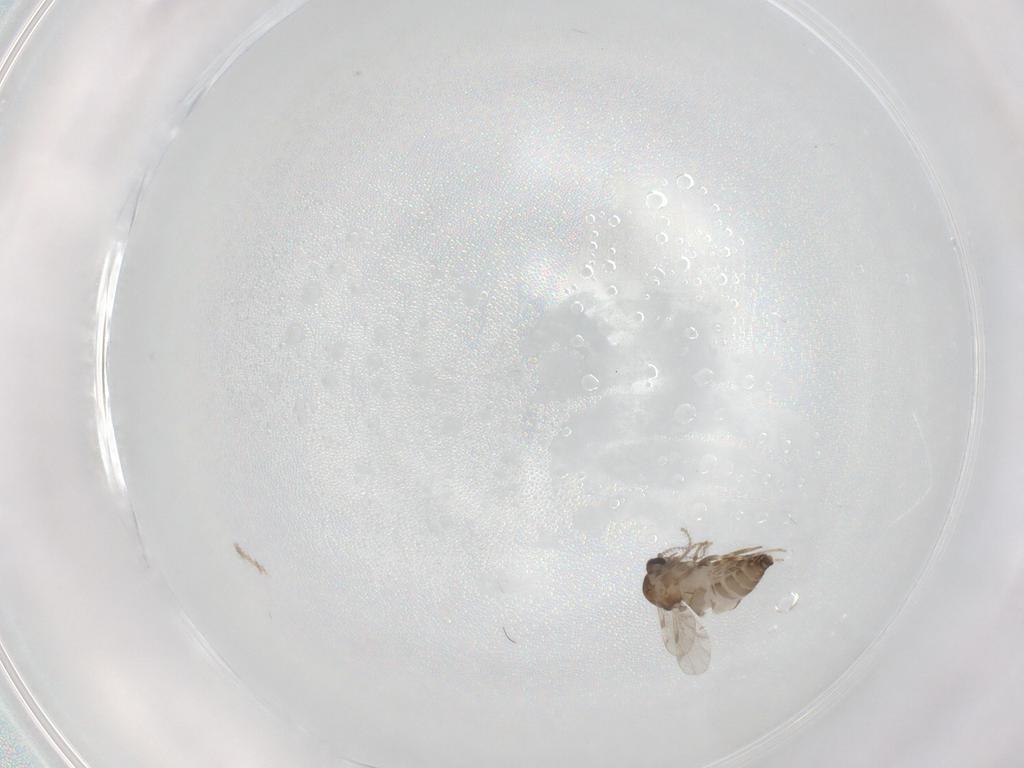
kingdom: Animalia
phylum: Arthropoda
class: Insecta
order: Diptera
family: Ceratopogonidae
